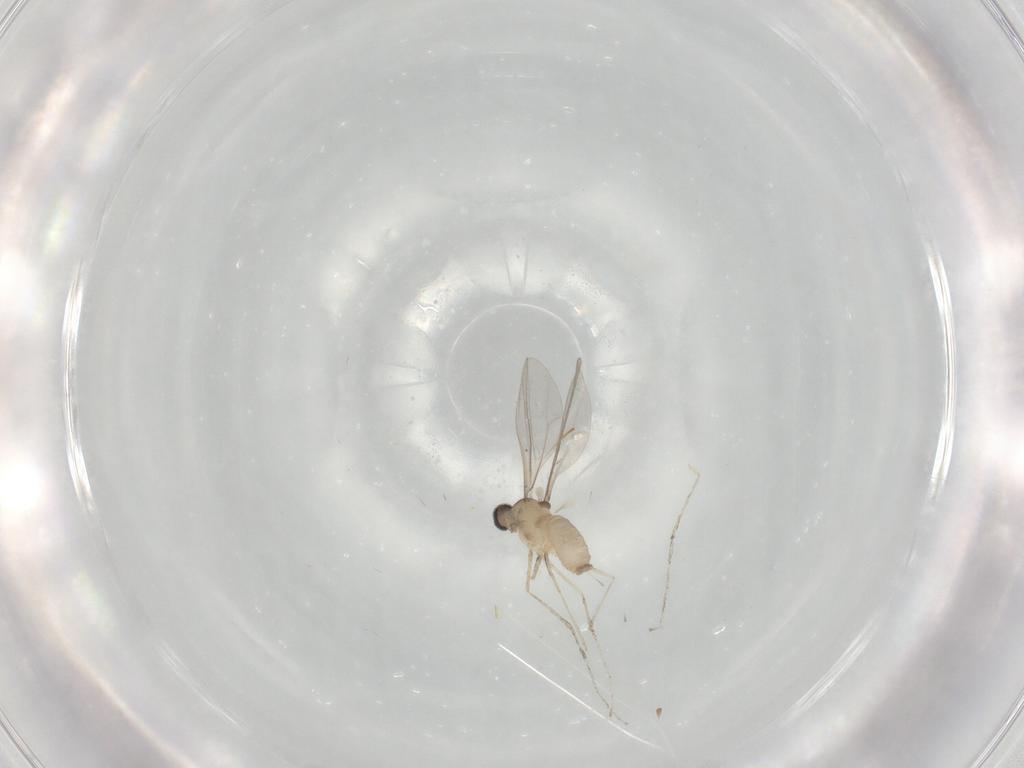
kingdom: Animalia
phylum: Arthropoda
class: Insecta
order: Diptera
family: Cecidomyiidae
